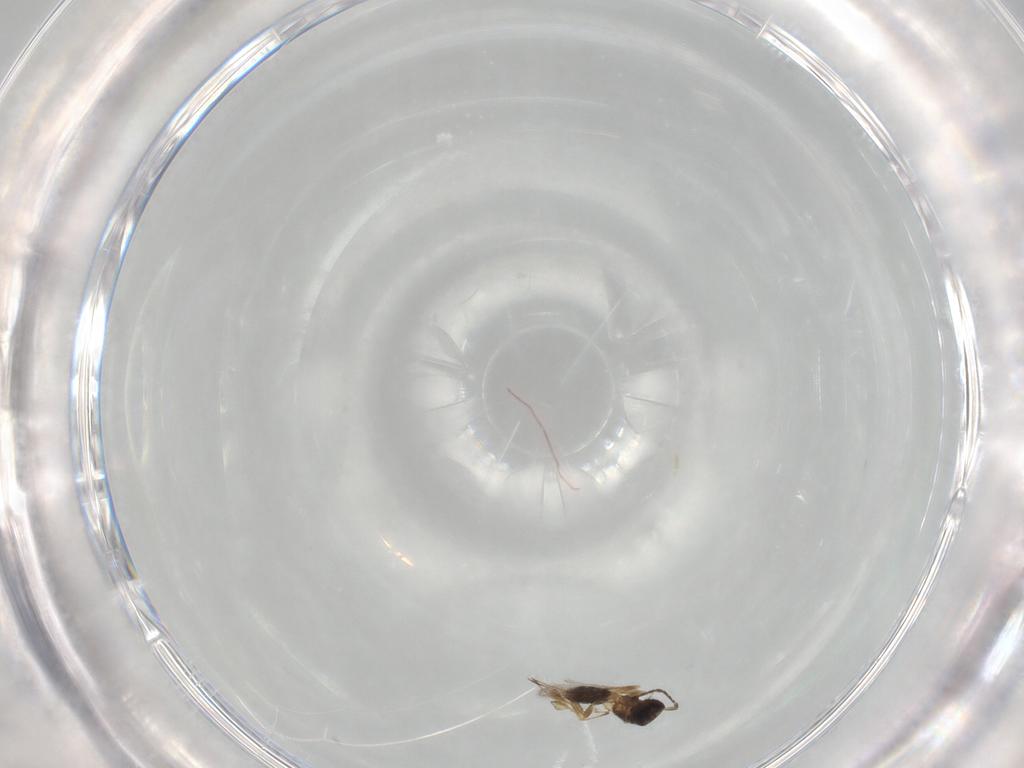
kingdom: Animalia
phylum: Arthropoda
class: Insecta
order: Hymenoptera
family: Mymaridae
